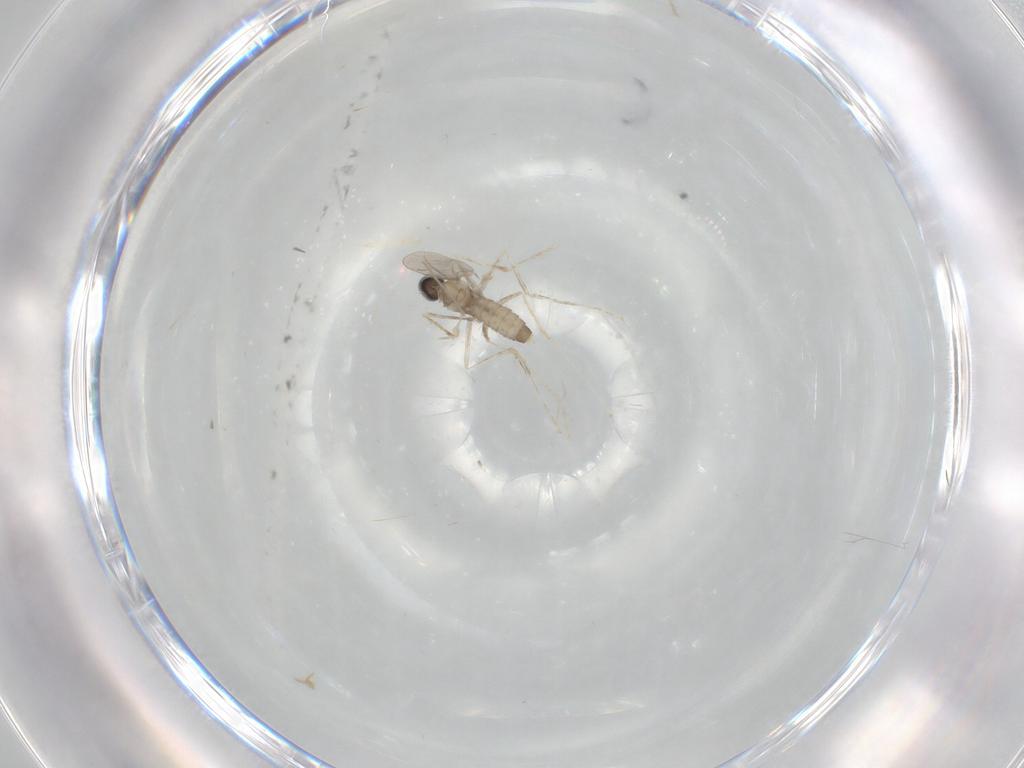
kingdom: Animalia
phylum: Arthropoda
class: Insecta
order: Diptera
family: Cecidomyiidae
